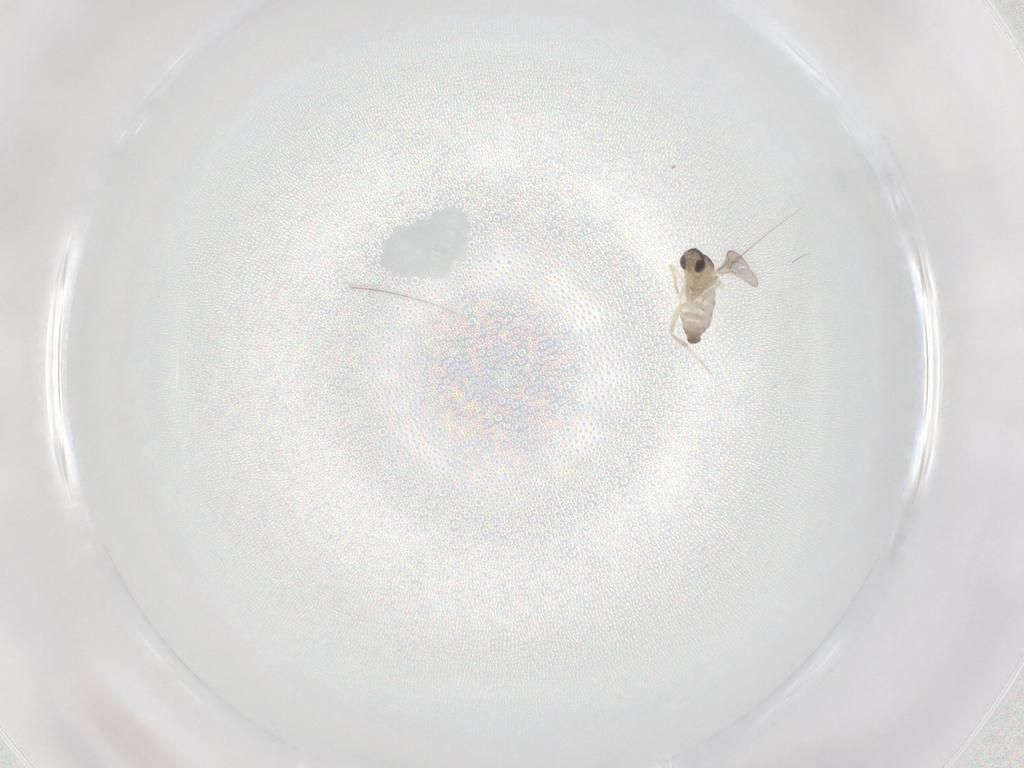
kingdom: Animalia
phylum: Arthropoda
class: Insecta
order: Diptera
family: Cecidomyiidae
